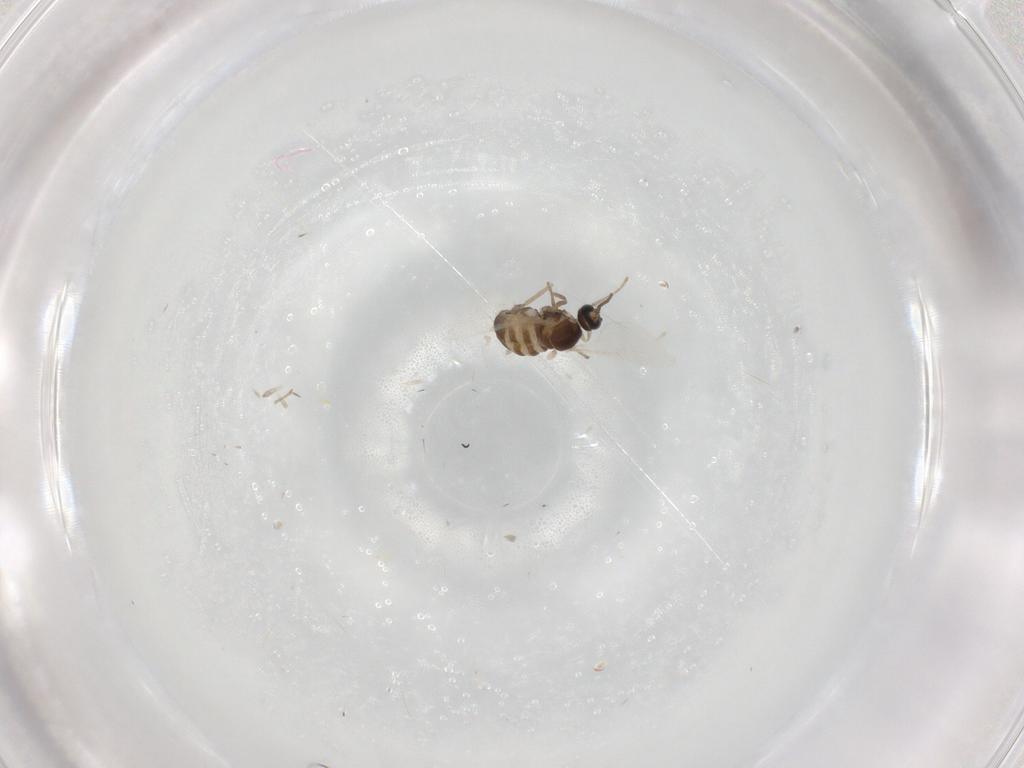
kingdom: Animalia
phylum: Arthropoda
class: Insecta
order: Diptera
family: Cecidomyiidae
